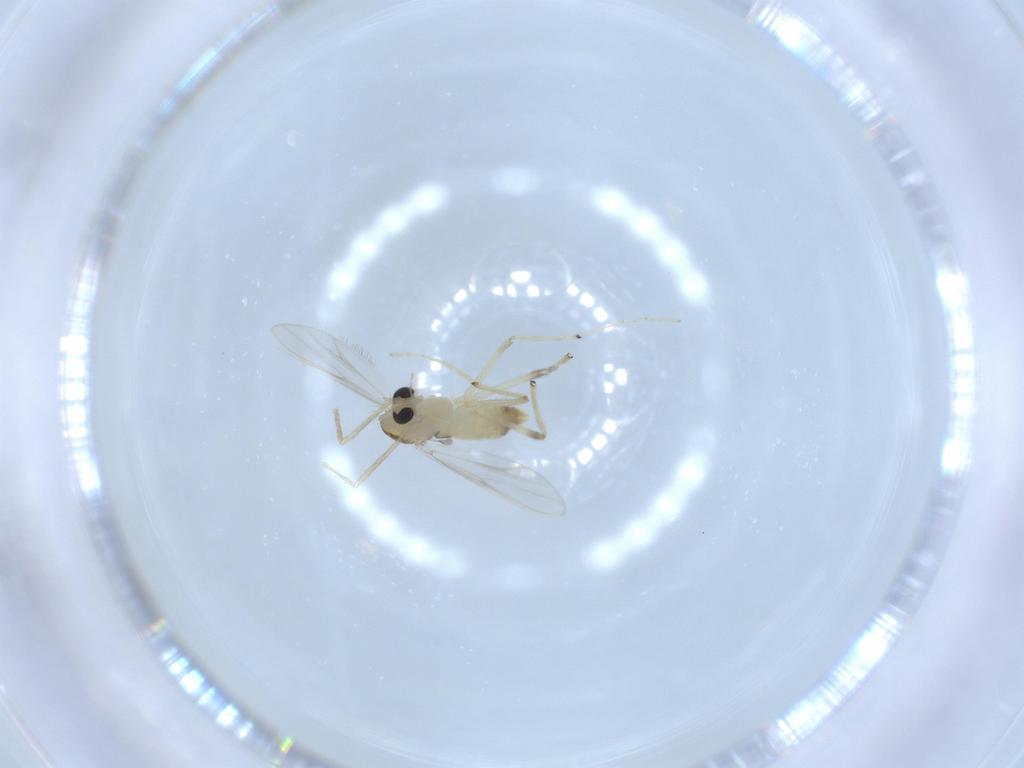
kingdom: Animalia
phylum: Arthropoda
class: Insecta
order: Diptera
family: Chironomidae
